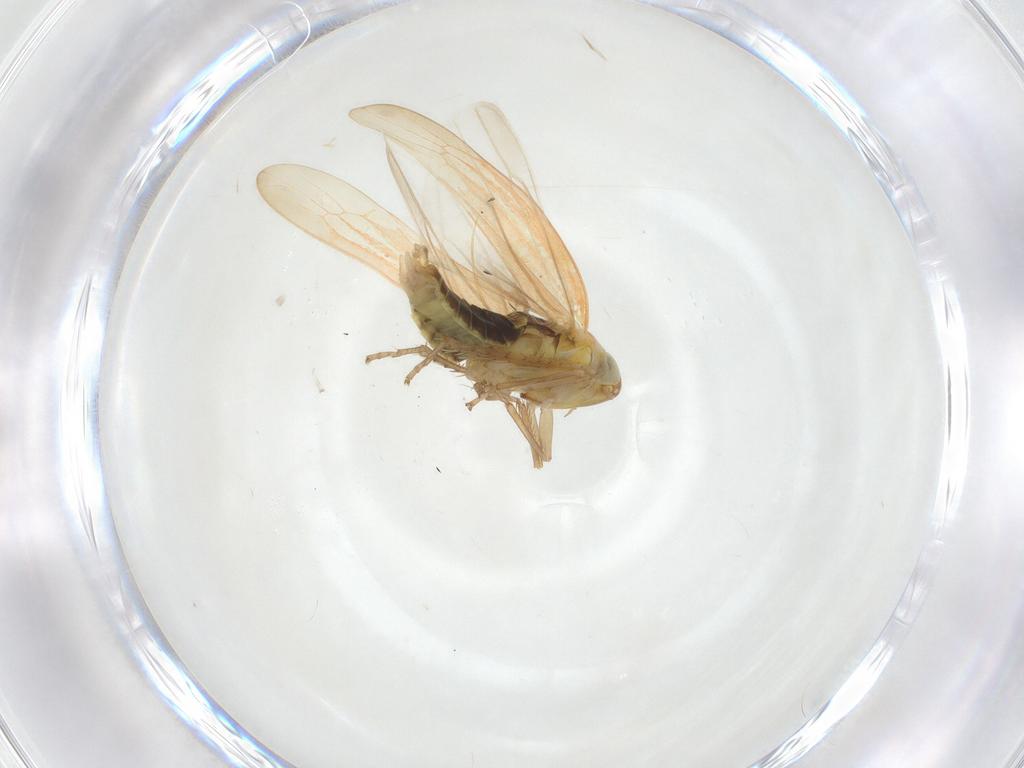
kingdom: Animalia
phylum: Arthropoda
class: Insecta
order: Hemiptera
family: Cicadellidae
